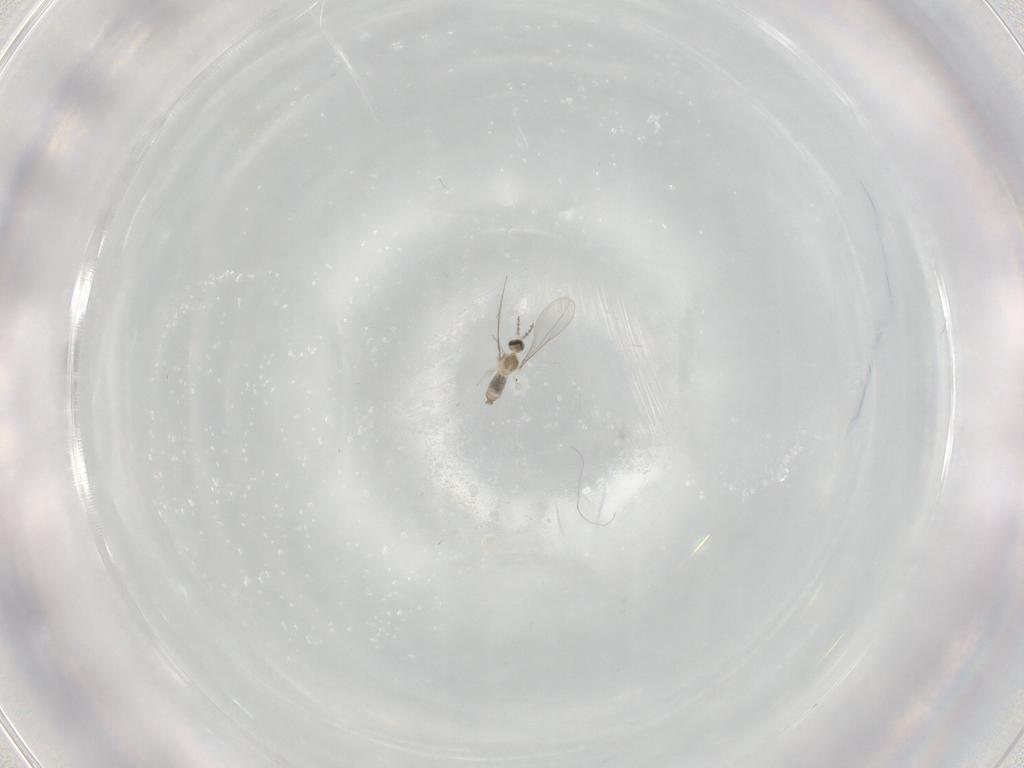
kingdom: Animalia
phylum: Arthropoda
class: Insecta
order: Diptera
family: Cecidomyiidae
